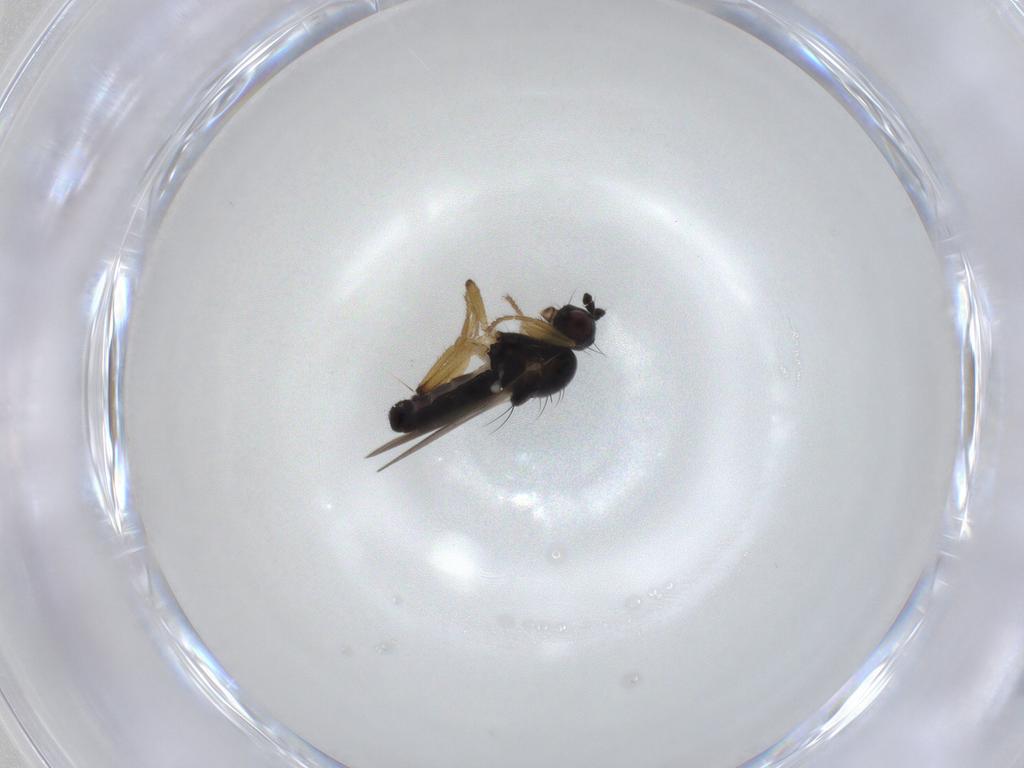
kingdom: Animalia
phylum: Arthropoda
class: Insecta
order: Diptera
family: Sphaeroceridae
